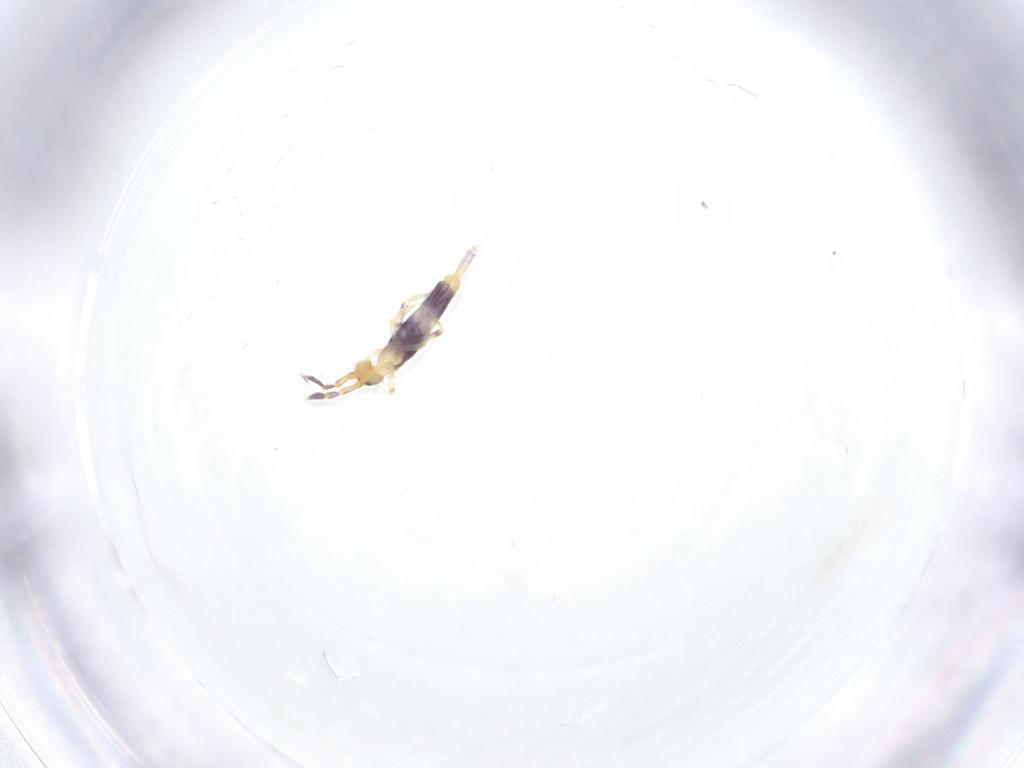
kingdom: Animalia
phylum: Arthropoda
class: Collembola
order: Entomobryomorpha
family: Entomobryidae
